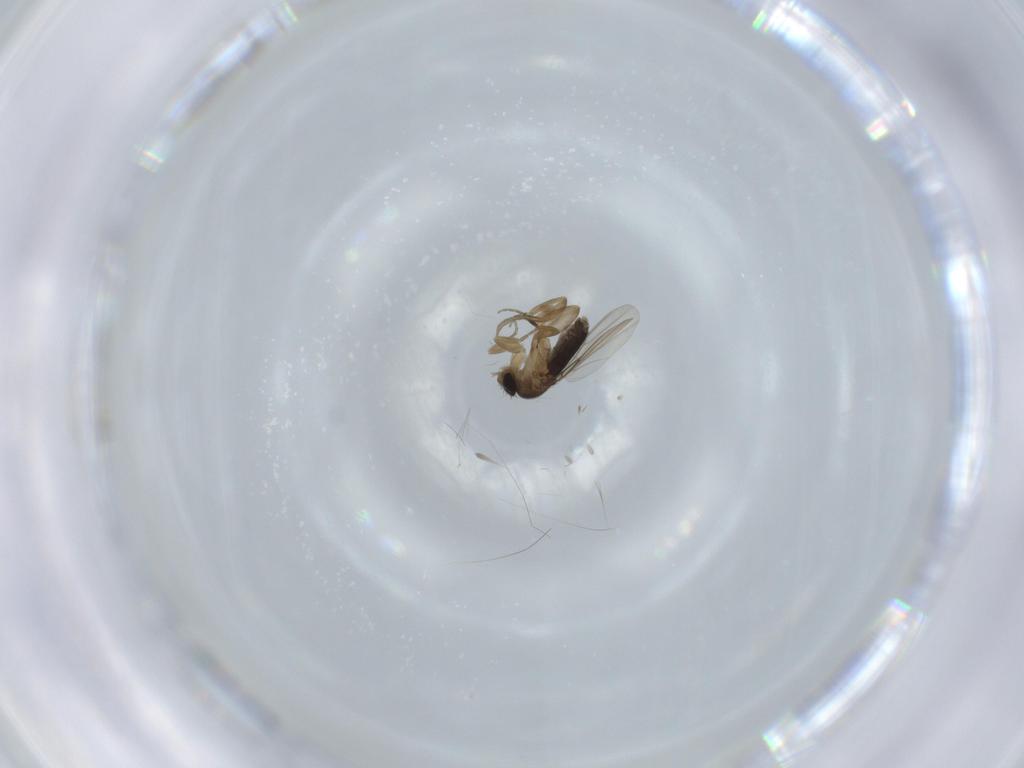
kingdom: Animalia
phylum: Arthropoda
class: Insecta
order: Diptera
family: Phoridae
